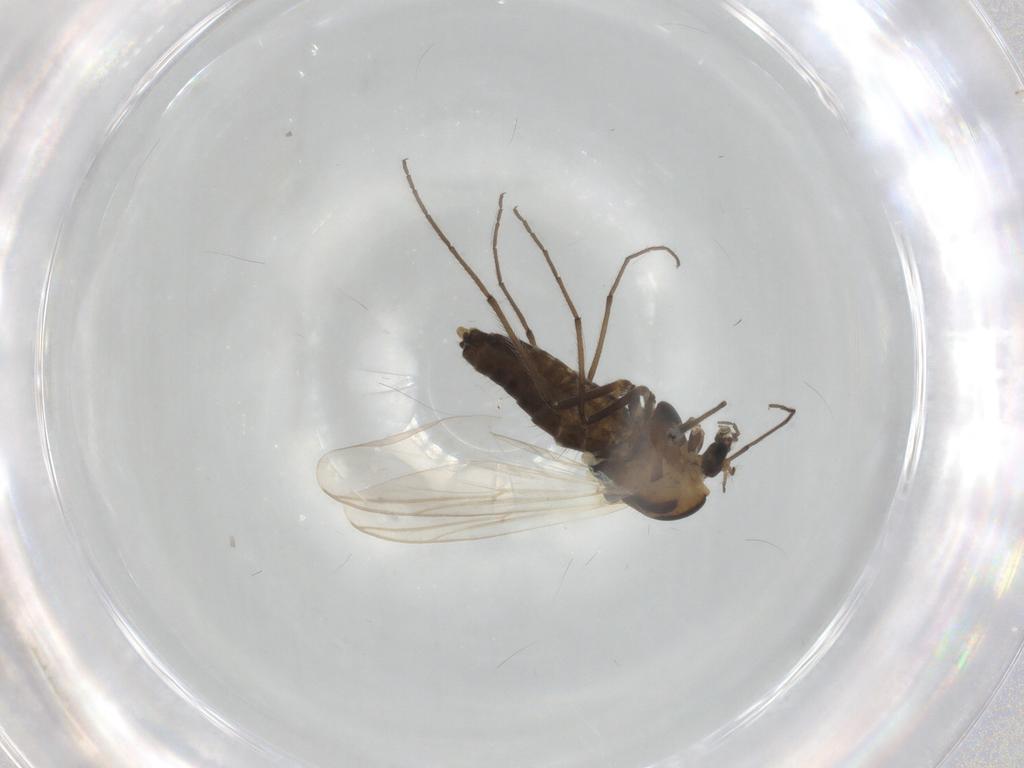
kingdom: Animalia
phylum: Arthropoda
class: Insecta
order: Diptera
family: Chironomidae
